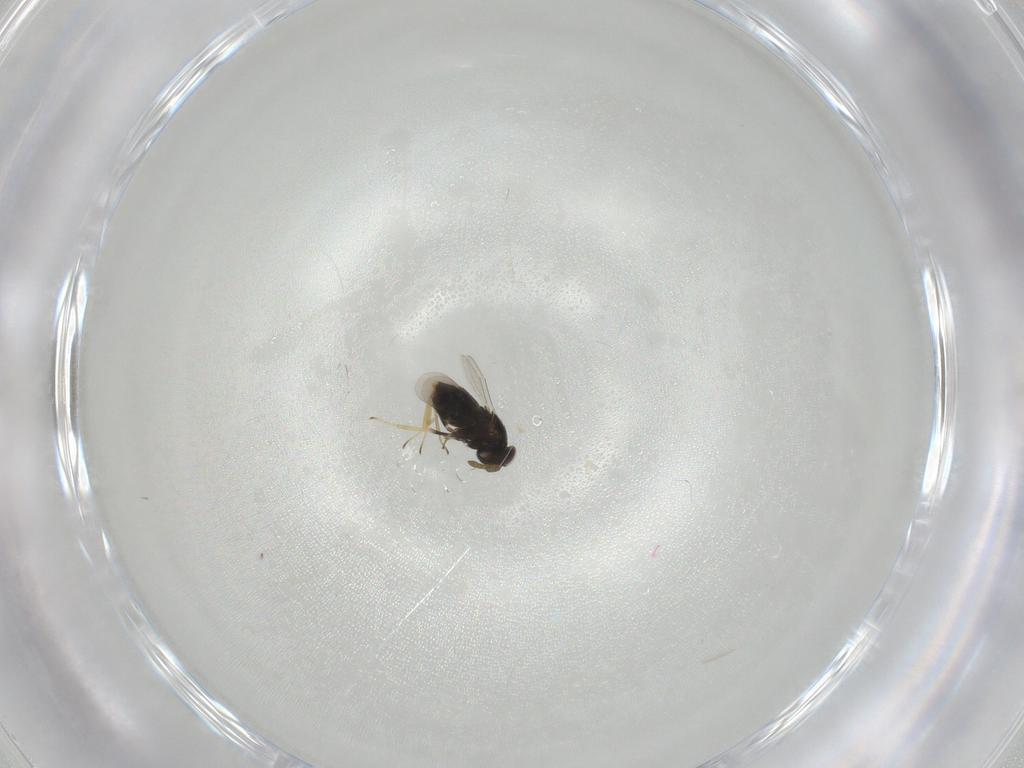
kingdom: Animalia
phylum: Arthropoda
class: Insecta
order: Hymenoptera
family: Aphelinidae
